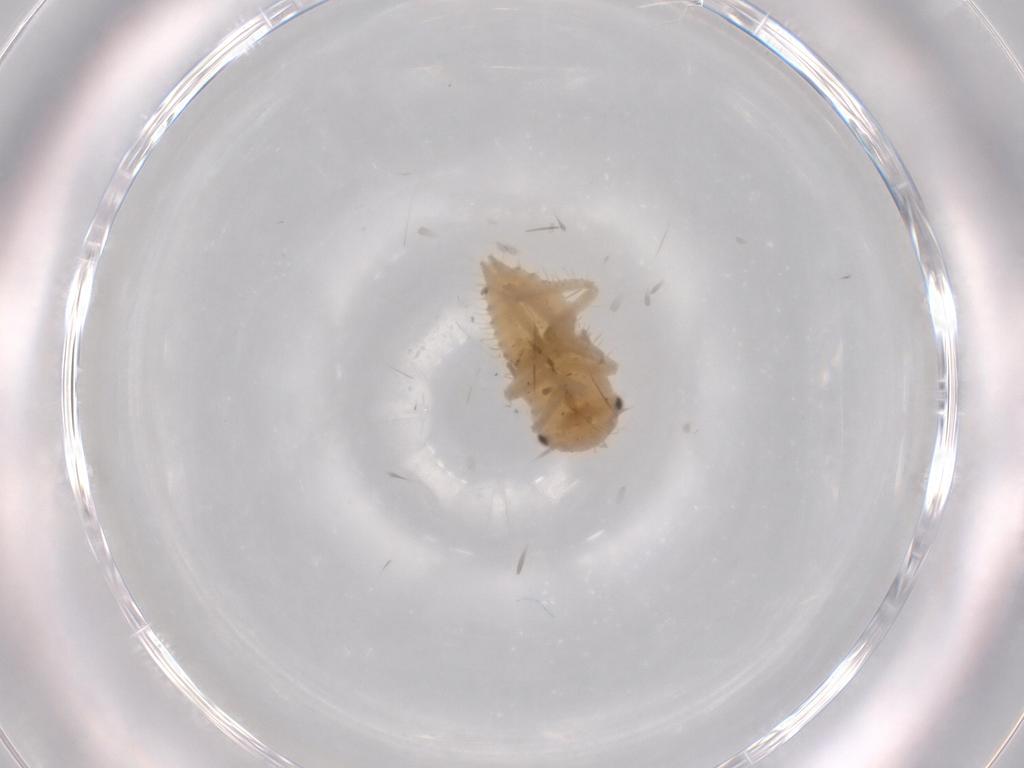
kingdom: Animalia
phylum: Arthropoda
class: Insecta
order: Hemiptera
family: Cicadellidae
